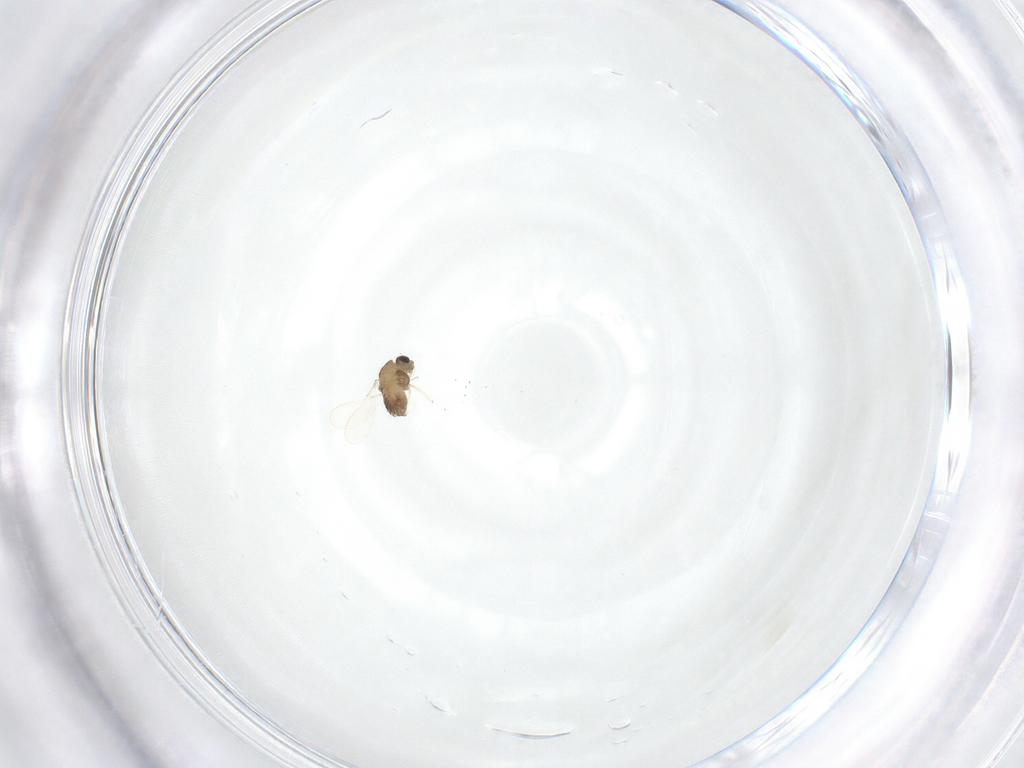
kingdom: Animalia
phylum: Arthropoda
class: Insecta
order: Diptera
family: Chironomidae
